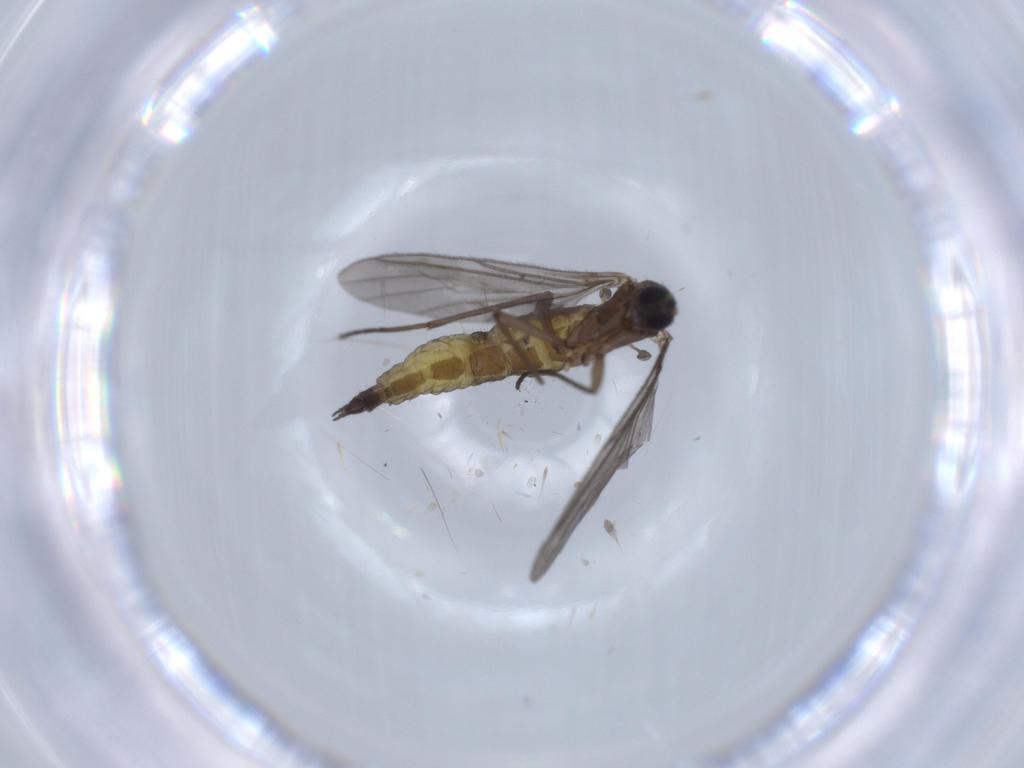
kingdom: Animalia
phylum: Arthropoda
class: Insecta
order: Diptera
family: Sciaridae
